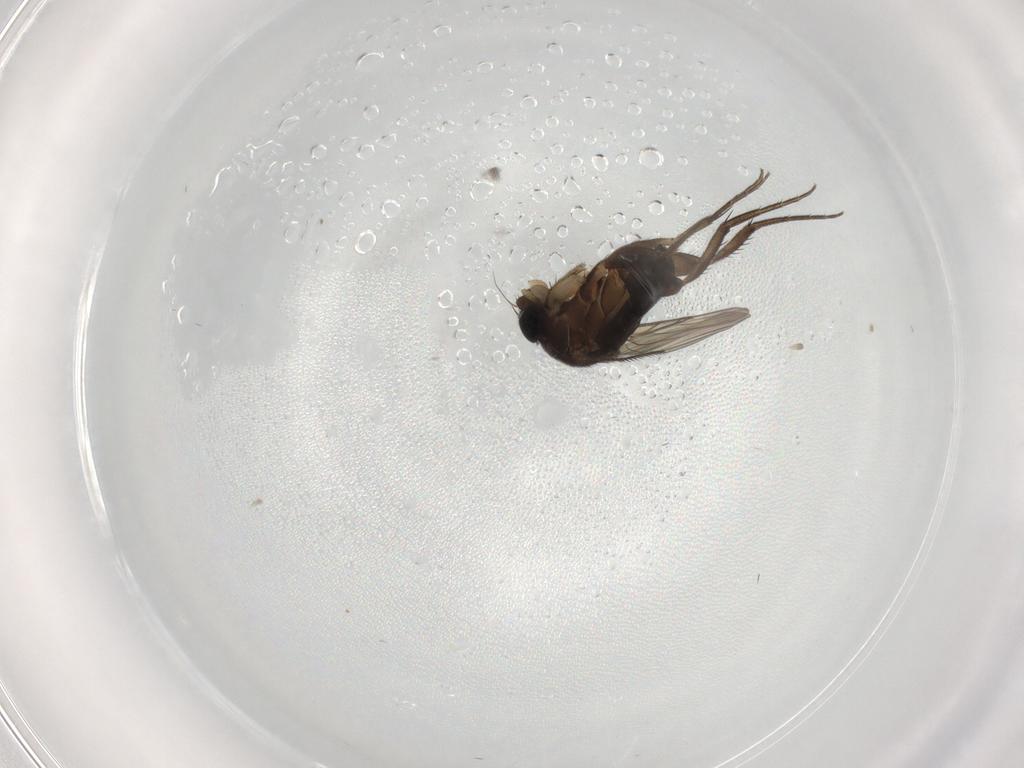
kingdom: Animalia
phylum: Arthropoda
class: Insecta
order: Diptera
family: Phoridae
